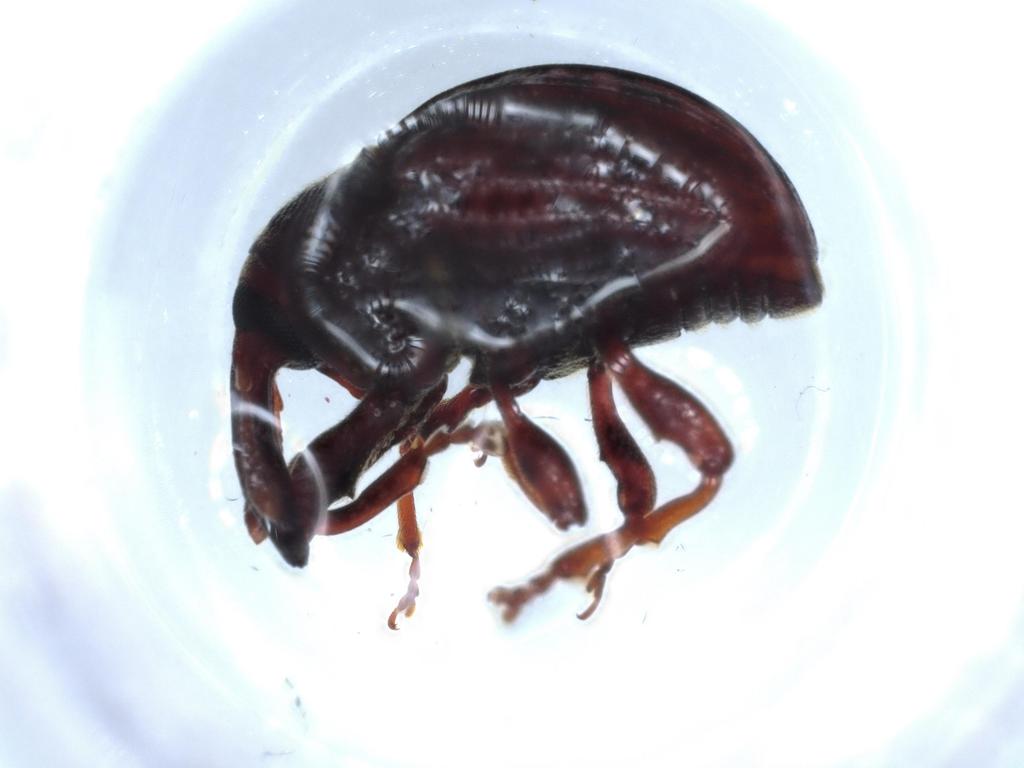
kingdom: Animalia
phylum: Arthropoda
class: Insecta
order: Coleoptera
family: Curculionidae
